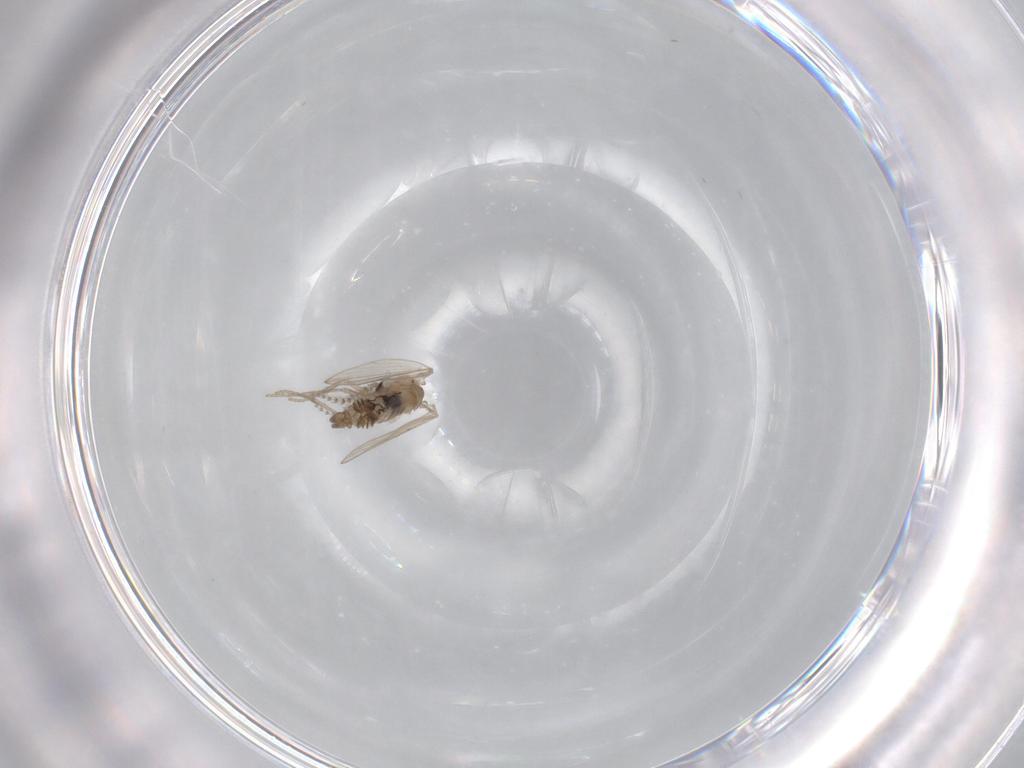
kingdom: Animalia
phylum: Arthropoda
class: Insecta
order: Diptera
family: Psychodidae
